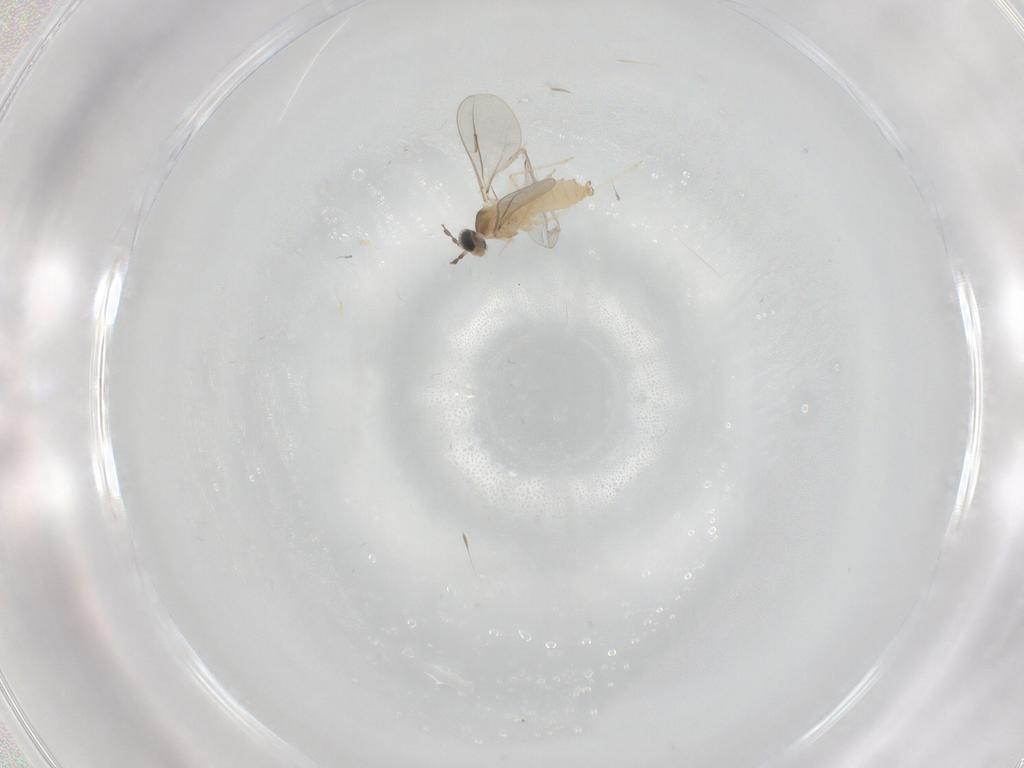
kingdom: Animalia
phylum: Arthropoda
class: Insecta
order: Diptera
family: Cecidomyiidae
